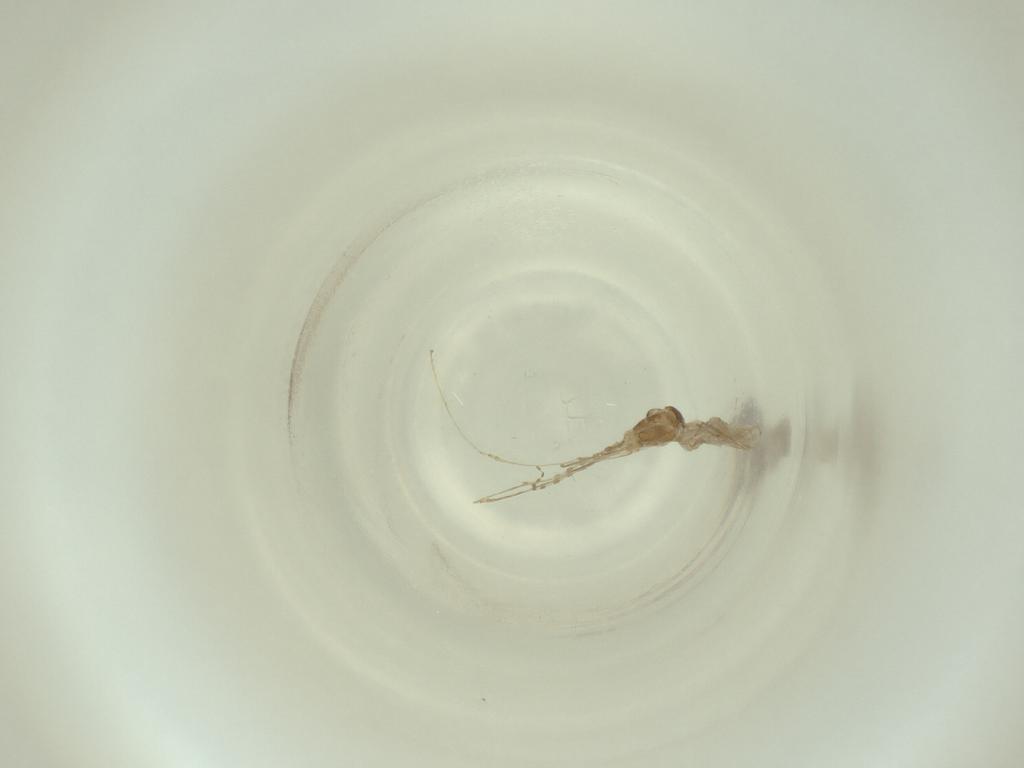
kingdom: Animalia
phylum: Arthropoda
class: Insecta
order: Diptera
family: Cecidomyiidae
